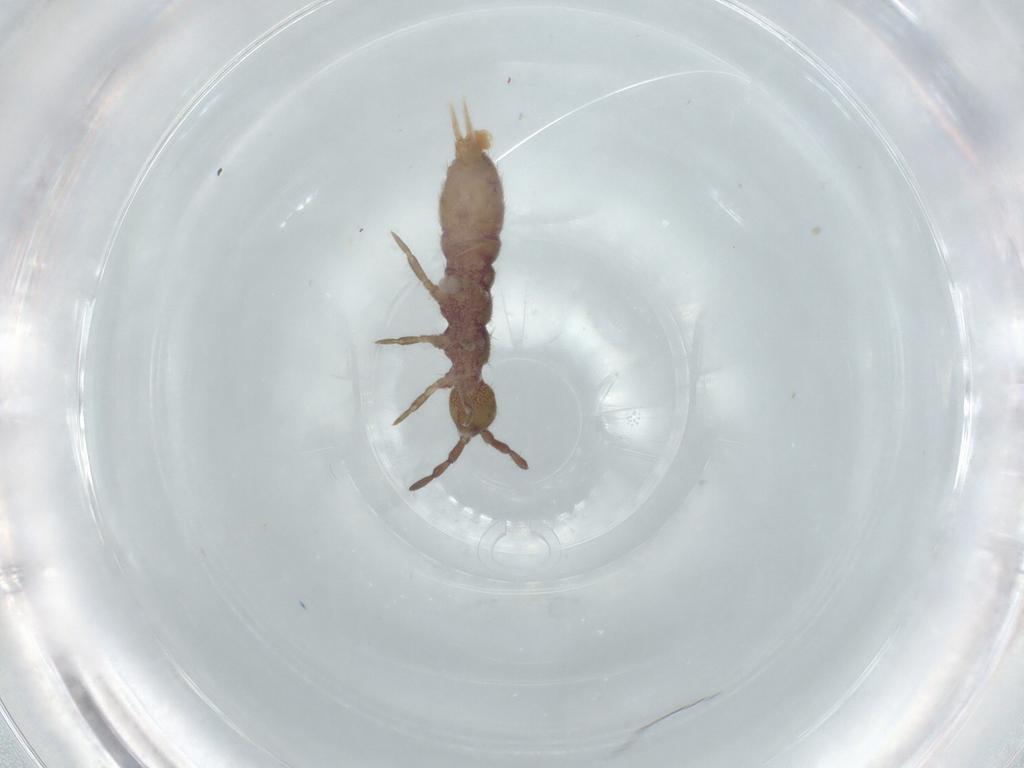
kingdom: Animalia
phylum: Arthropoda
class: Collembola
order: Entomobryomorpha
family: Isotomidae
